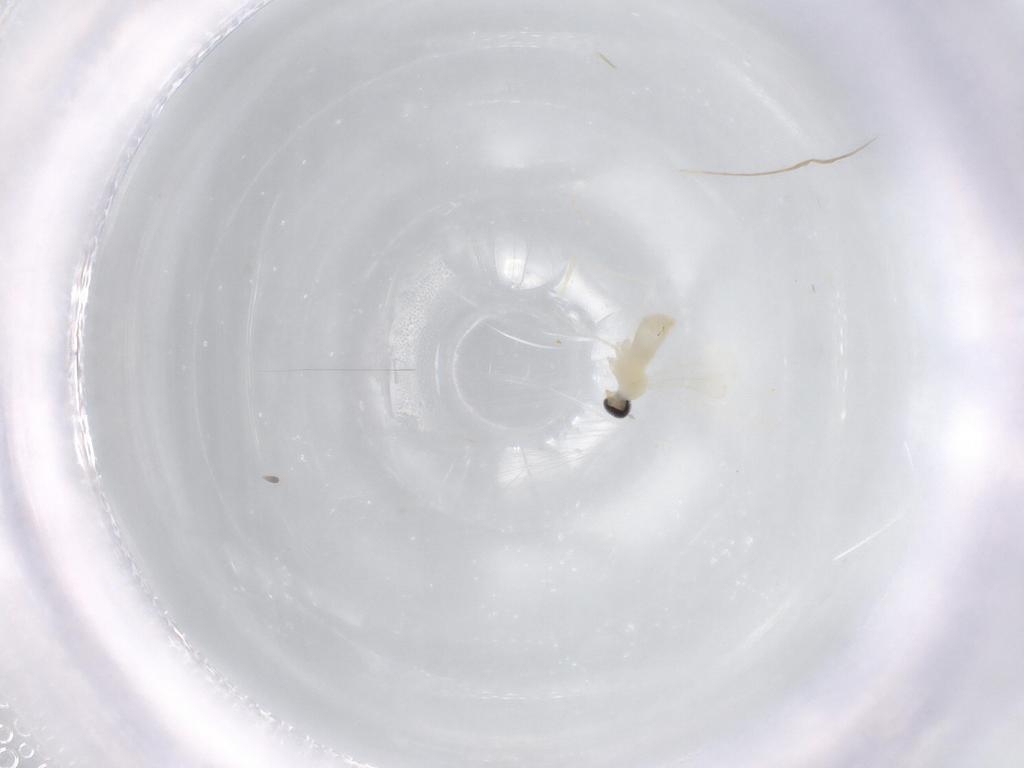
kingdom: Animalia
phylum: Arthropoda
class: Insecta
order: Diptera
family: Cecidomyiidae
